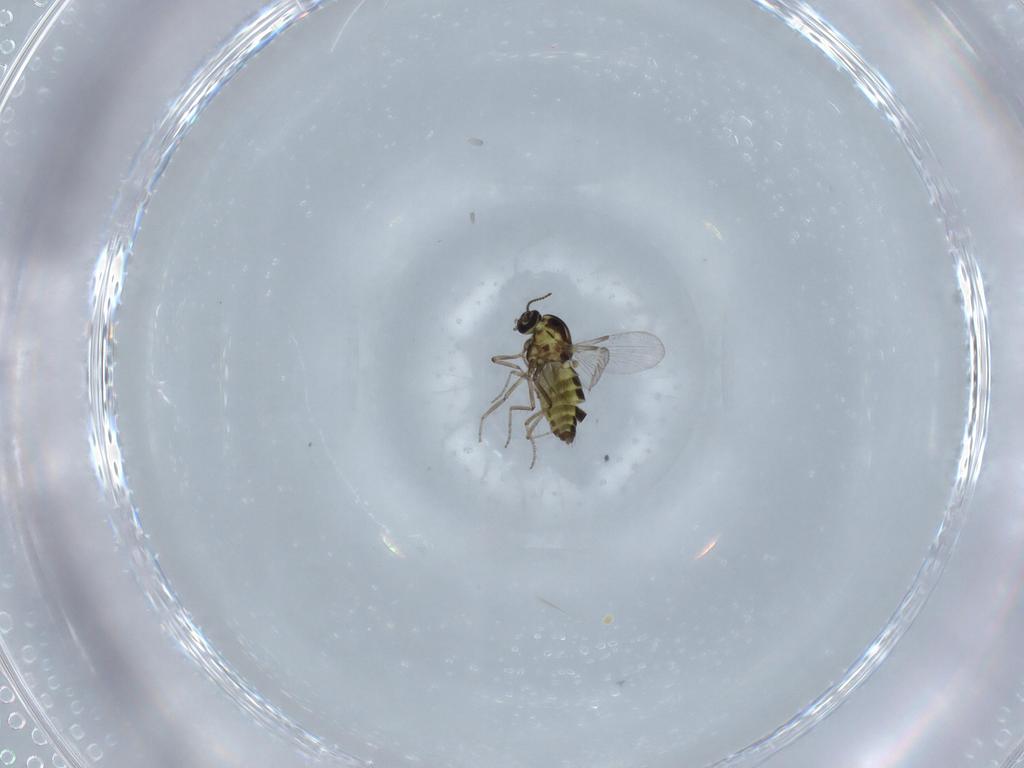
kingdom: Animalia
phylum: Arthropoda
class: Insecta
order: Diptera
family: Ceratopogonidae
